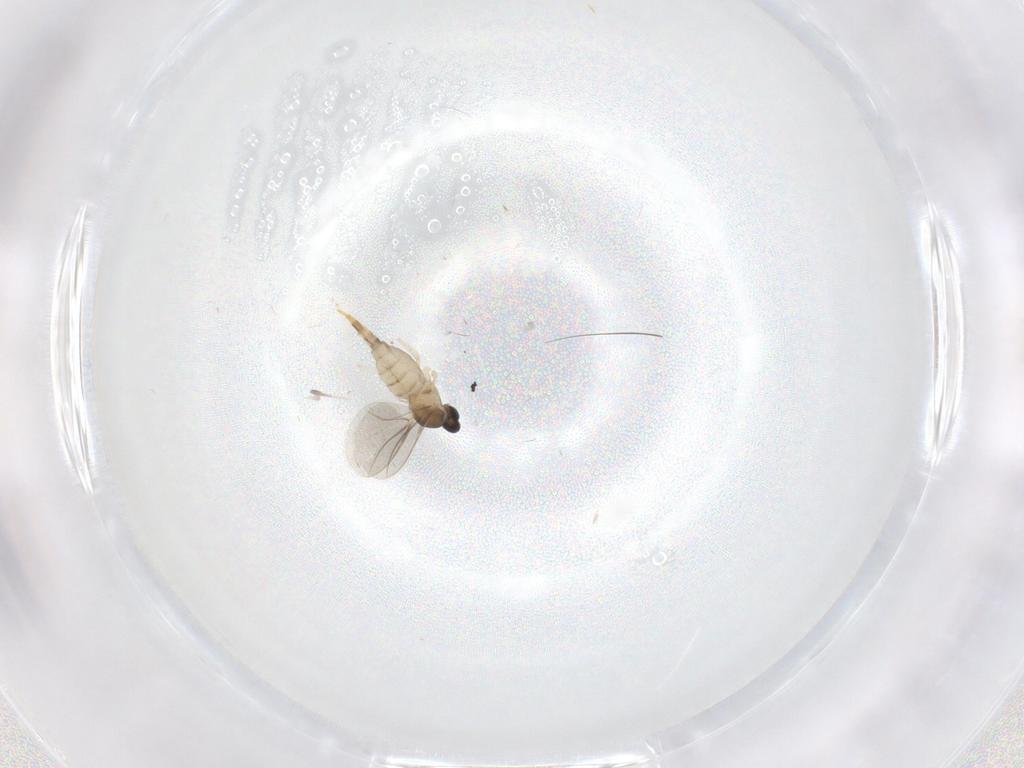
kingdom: Animalia
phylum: Arthropoda
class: Insecta
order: Diptera
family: Cecidomyiidae
